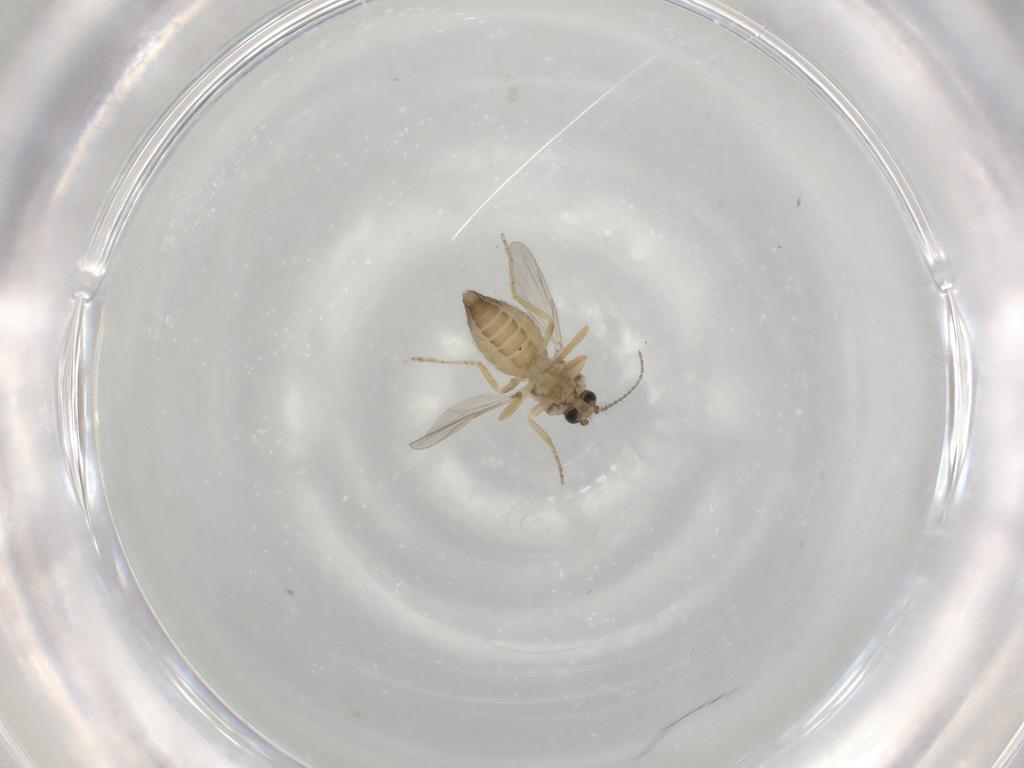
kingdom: Animalia
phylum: Arthropoda
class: Insecta
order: Diptera
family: Ceratopogonidae
